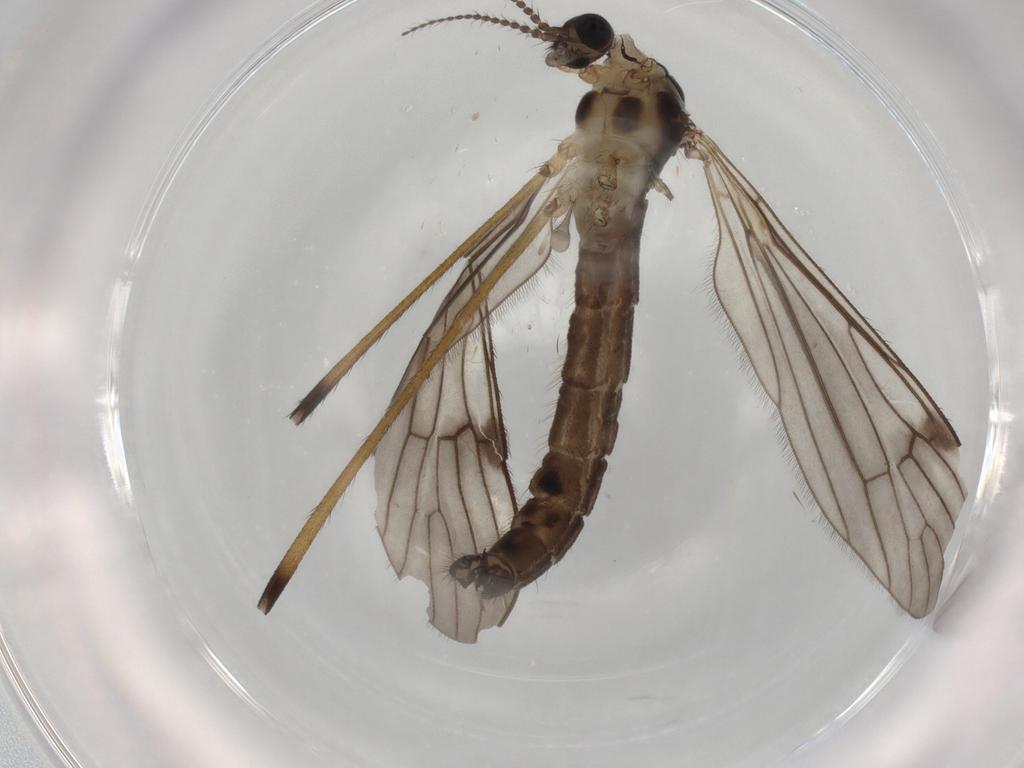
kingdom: Animalia
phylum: Arthropoda
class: Insecta
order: Diptera
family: Limoniidae
